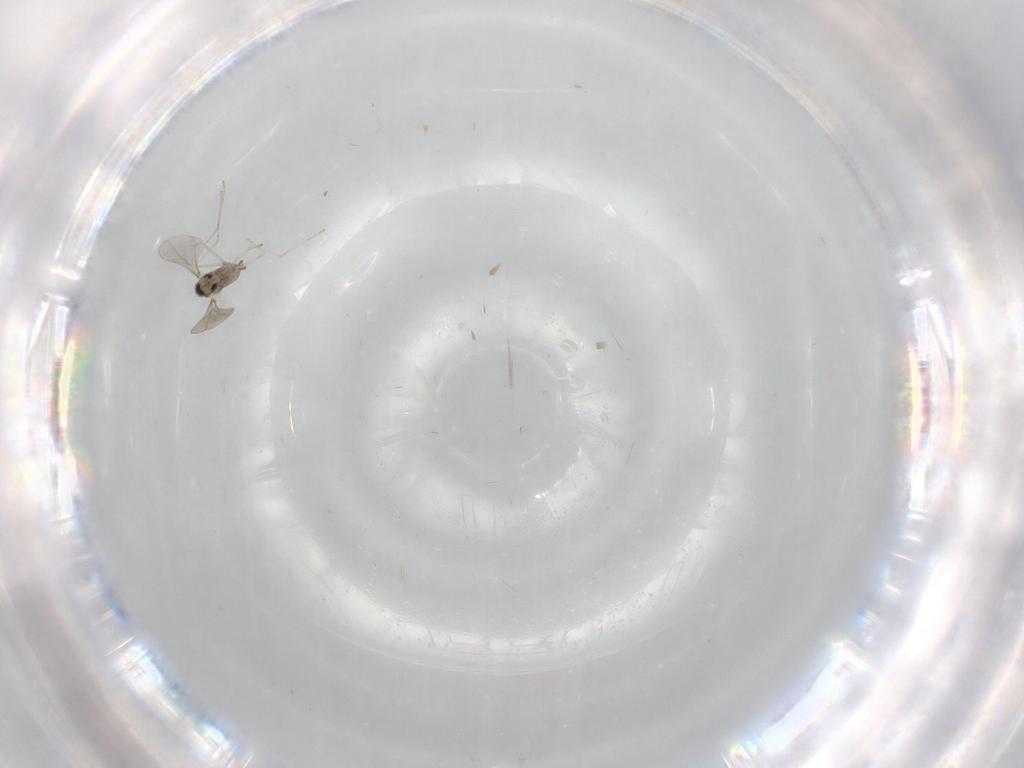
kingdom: Animalia
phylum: Arthropoda
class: Insecta
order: Diptera
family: Cecidomyiidae
